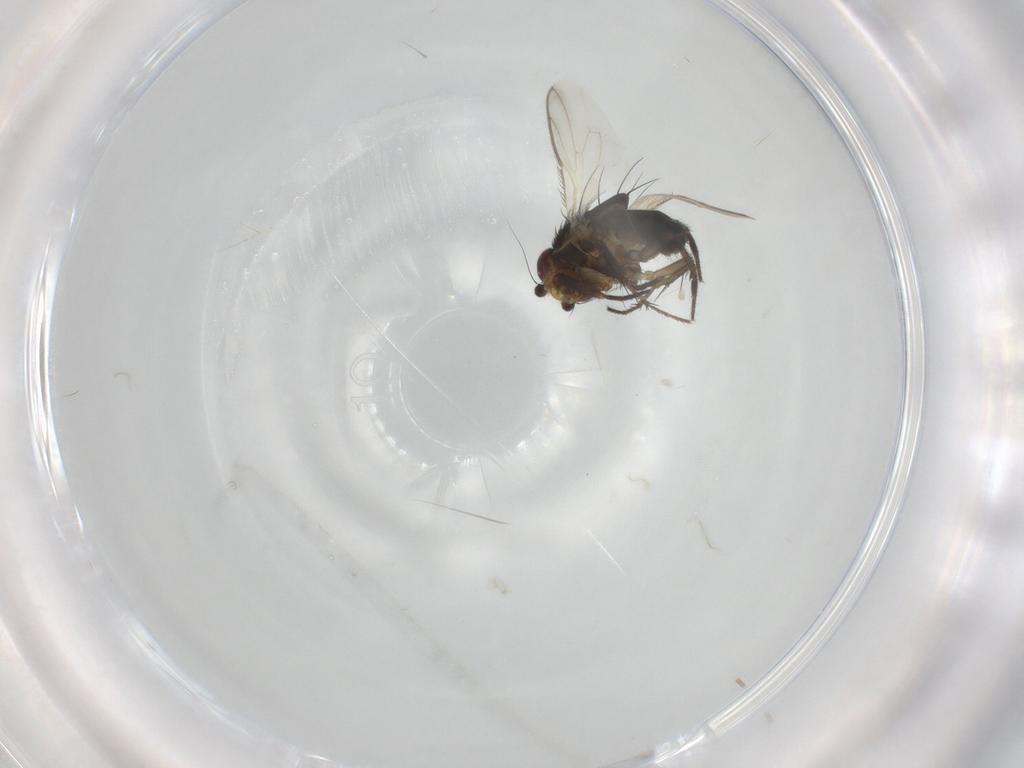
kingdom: Animalia
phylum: Arthropoda
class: Insecta
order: Diptera
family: Sphaeroceridae
